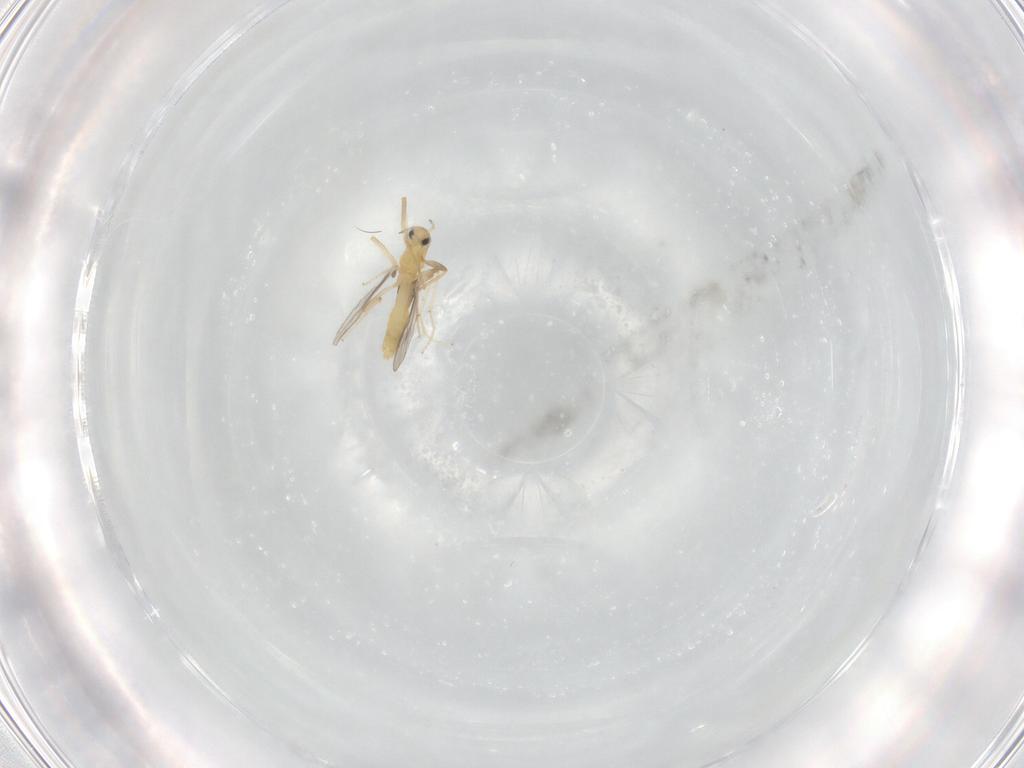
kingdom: Animalia
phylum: Arthropoda
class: Insecta
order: Diptera
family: Chironomidae
